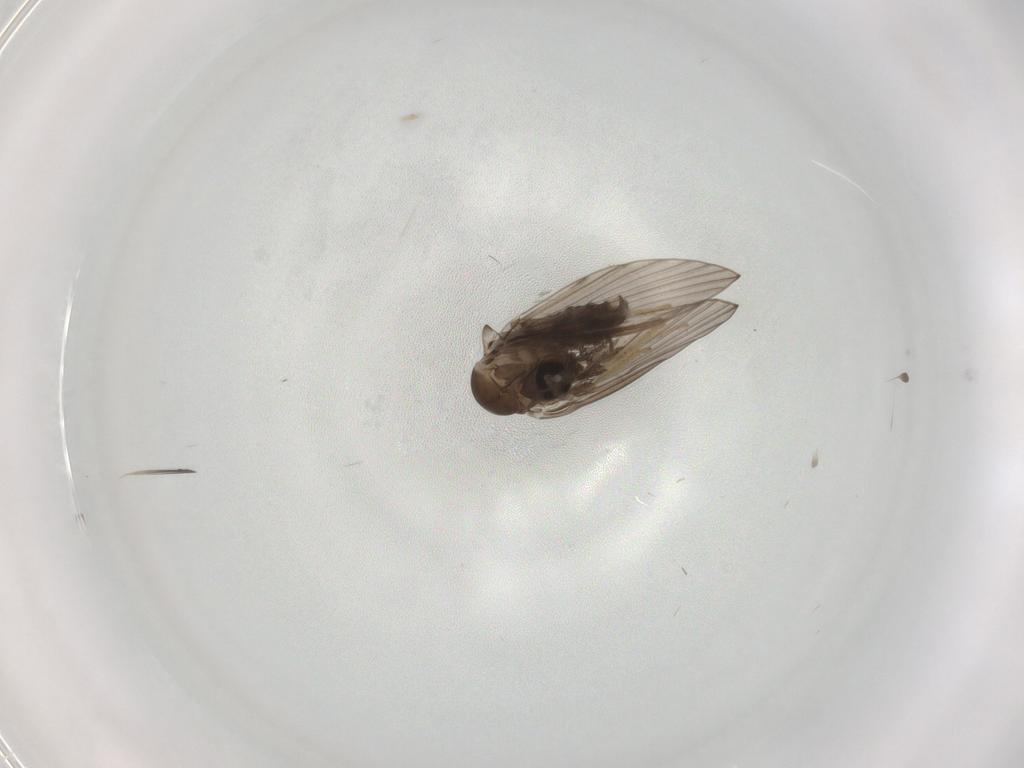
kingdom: Animalia
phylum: Arthropoda
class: Insecta
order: Diptera
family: Psychodidae
